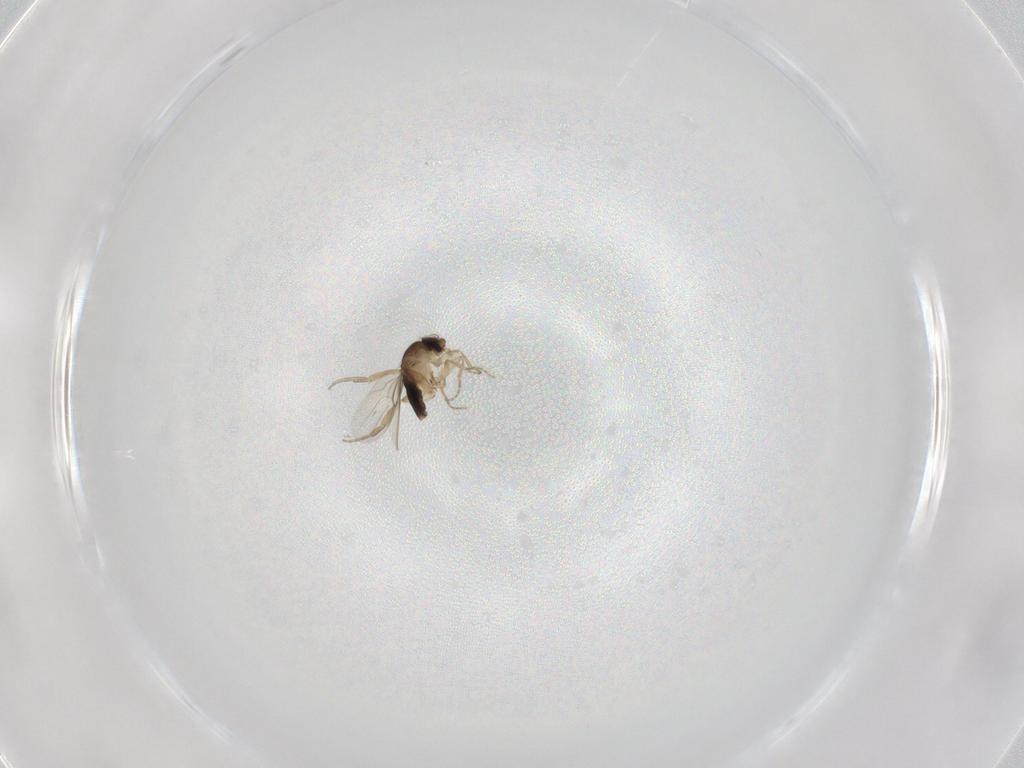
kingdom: Animalia
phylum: Arthropoda
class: Insecta
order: Diptera
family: Phoridae
